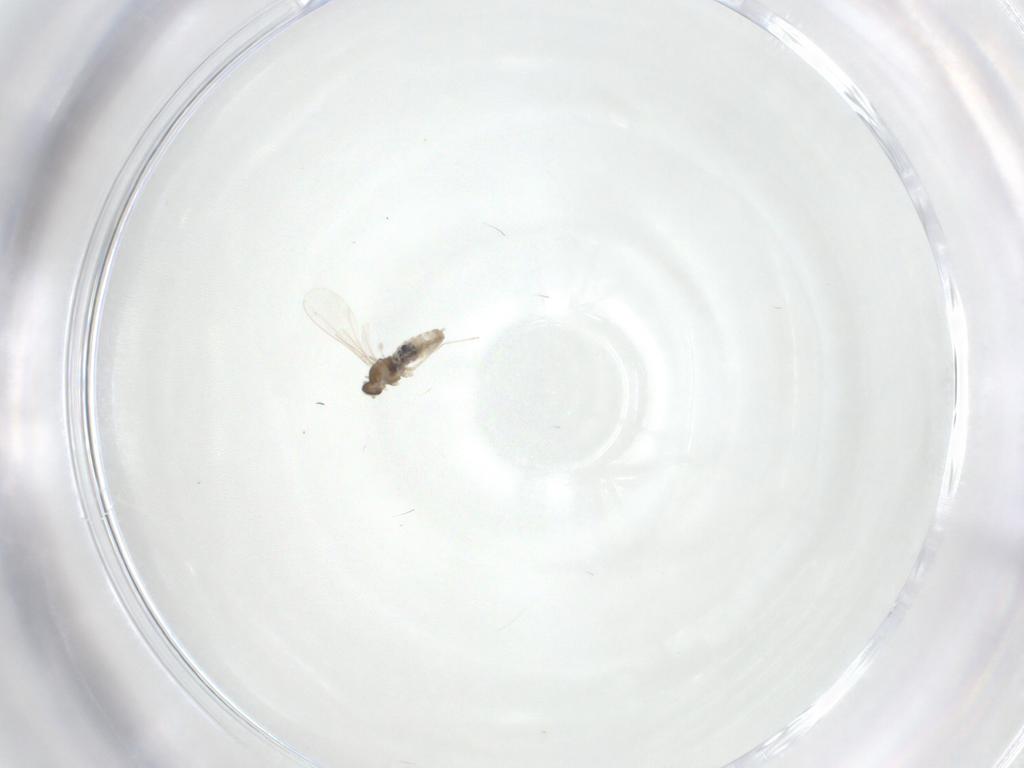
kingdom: Animalia
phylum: Arthropoda
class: Insecta
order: Diptera
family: Cecidomyiidae
